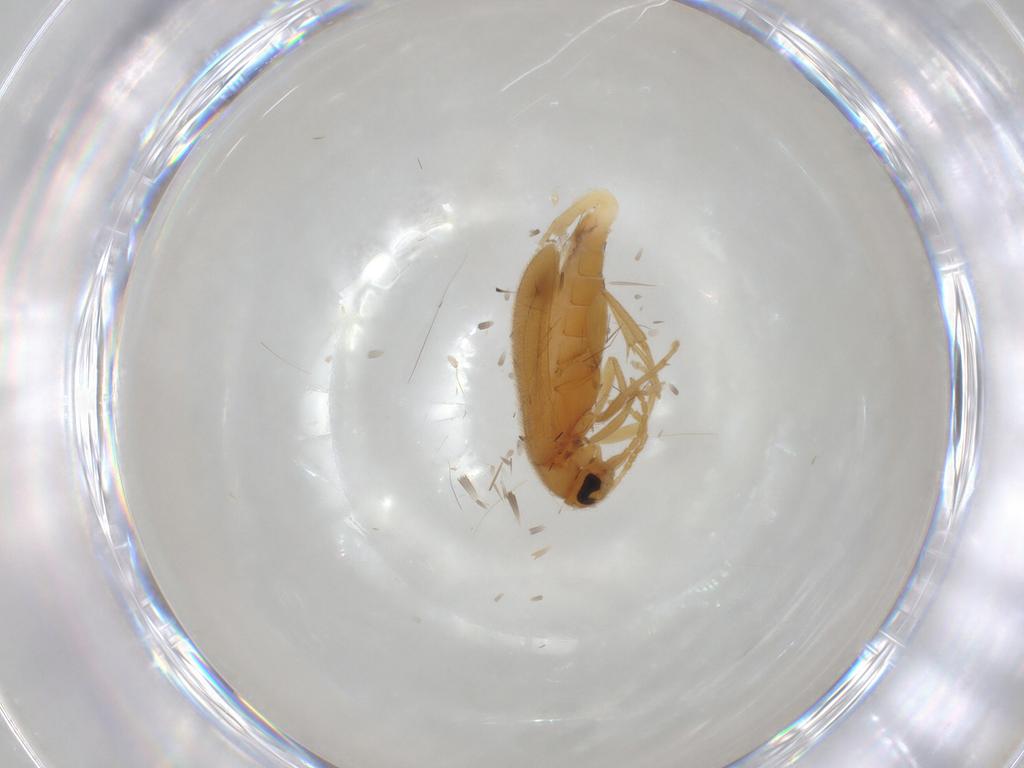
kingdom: Animalia
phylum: Arthropoda
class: Insecta
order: Coleoptera
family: Scraptiidae
